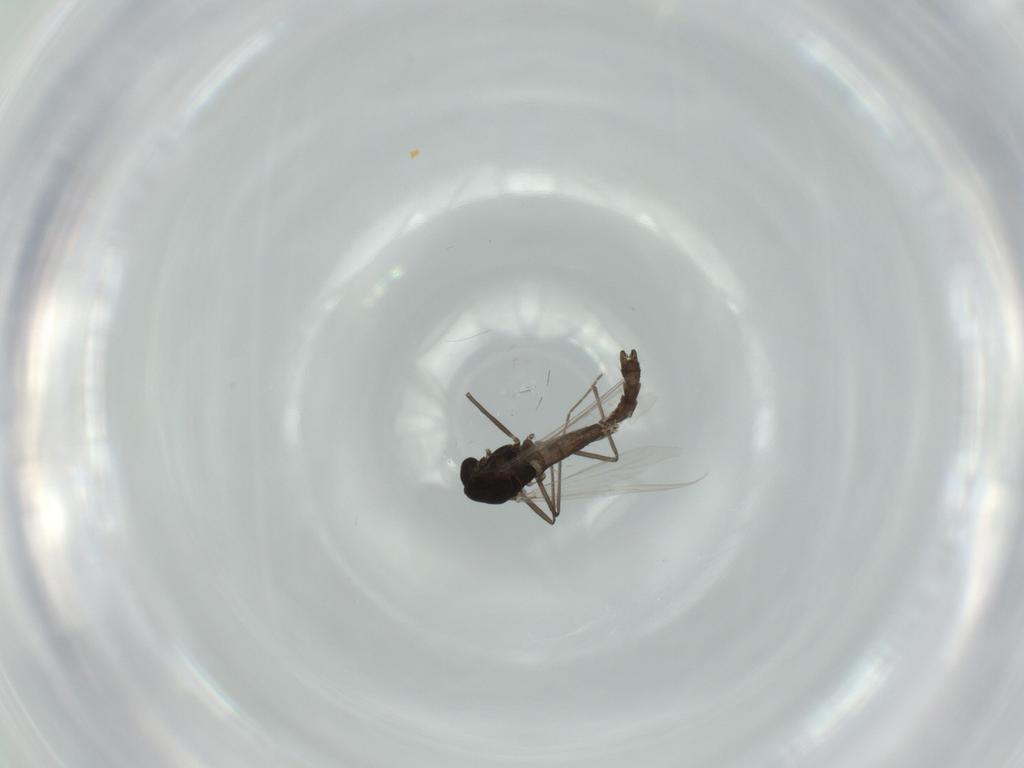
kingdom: Animalia
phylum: Arthropoda
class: Insecta
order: Diptera
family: Chironomidae
